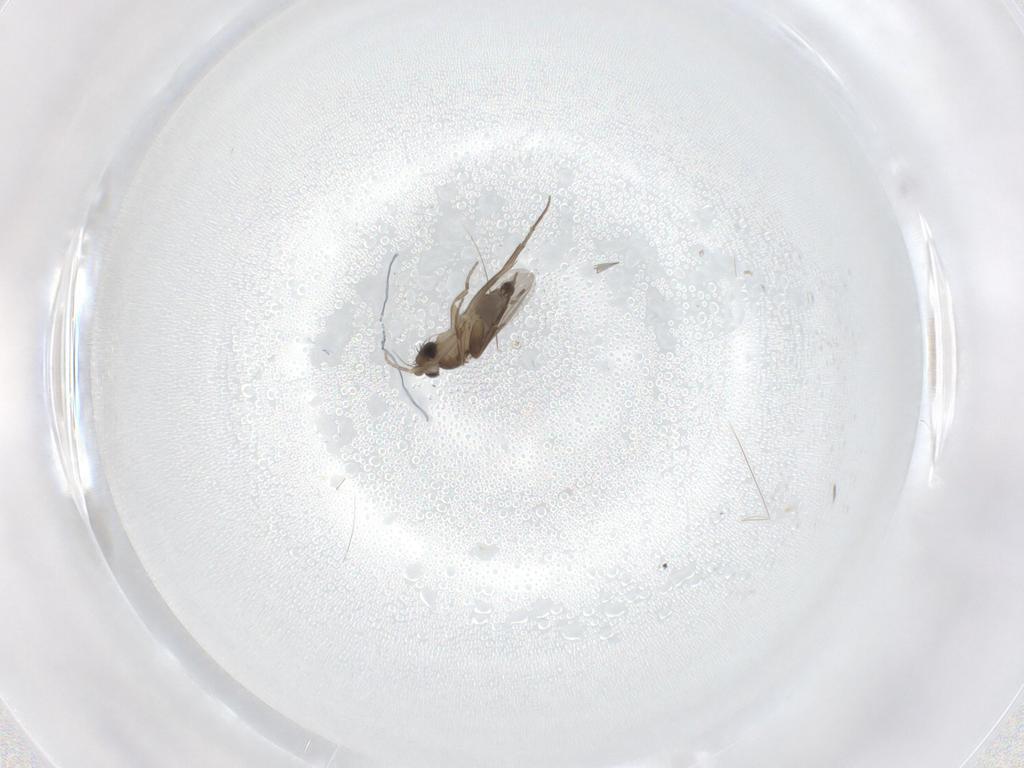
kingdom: Animalia
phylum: Arthropoda
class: Insecta
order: Diptera
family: Phoridae
